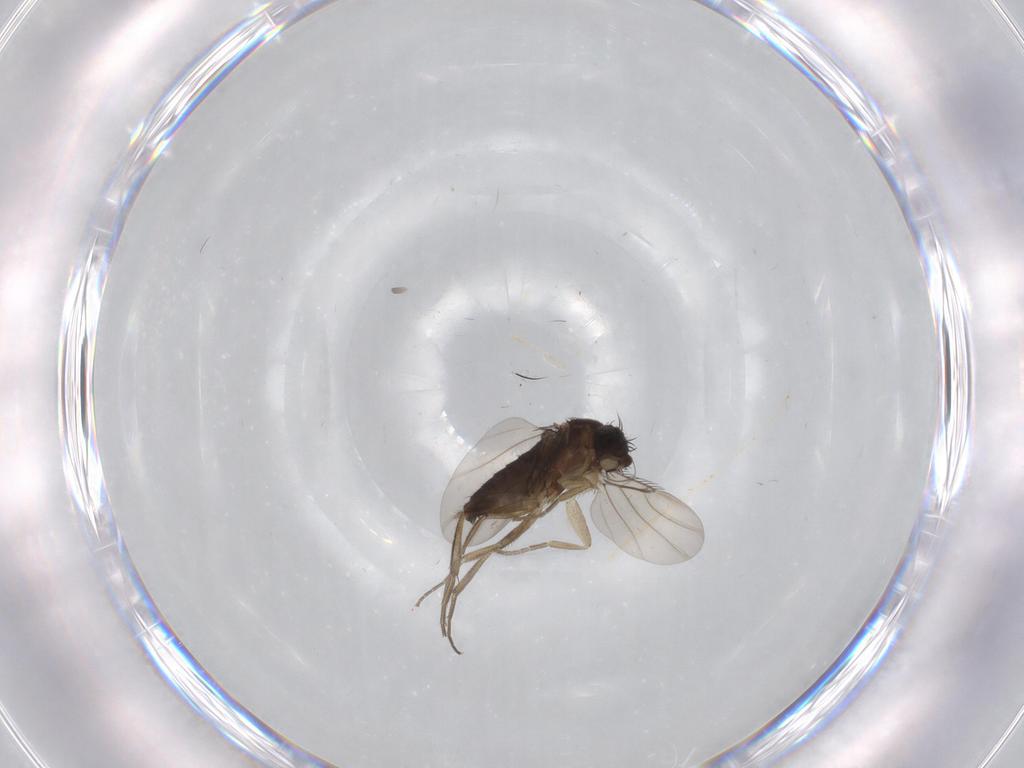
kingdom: Animalia
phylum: Arthropoda
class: Insecta
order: Diptera
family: Phoridae
